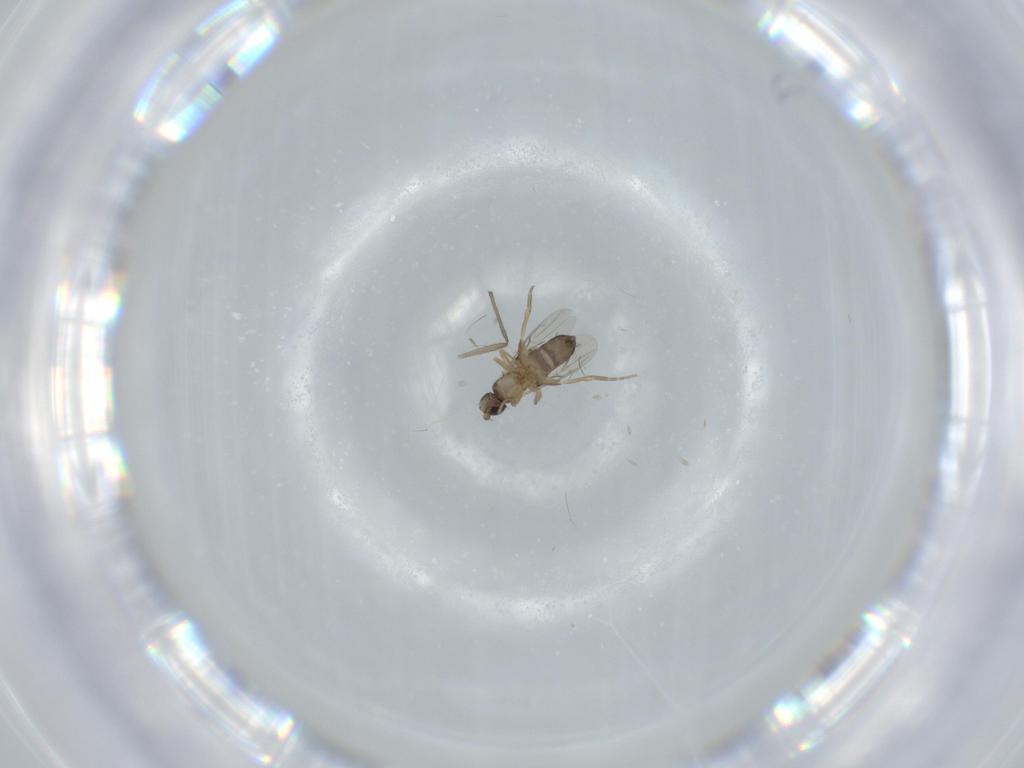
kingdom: Animalia
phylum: Arthropoda
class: Insecta
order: Diptera
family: Phoridae
